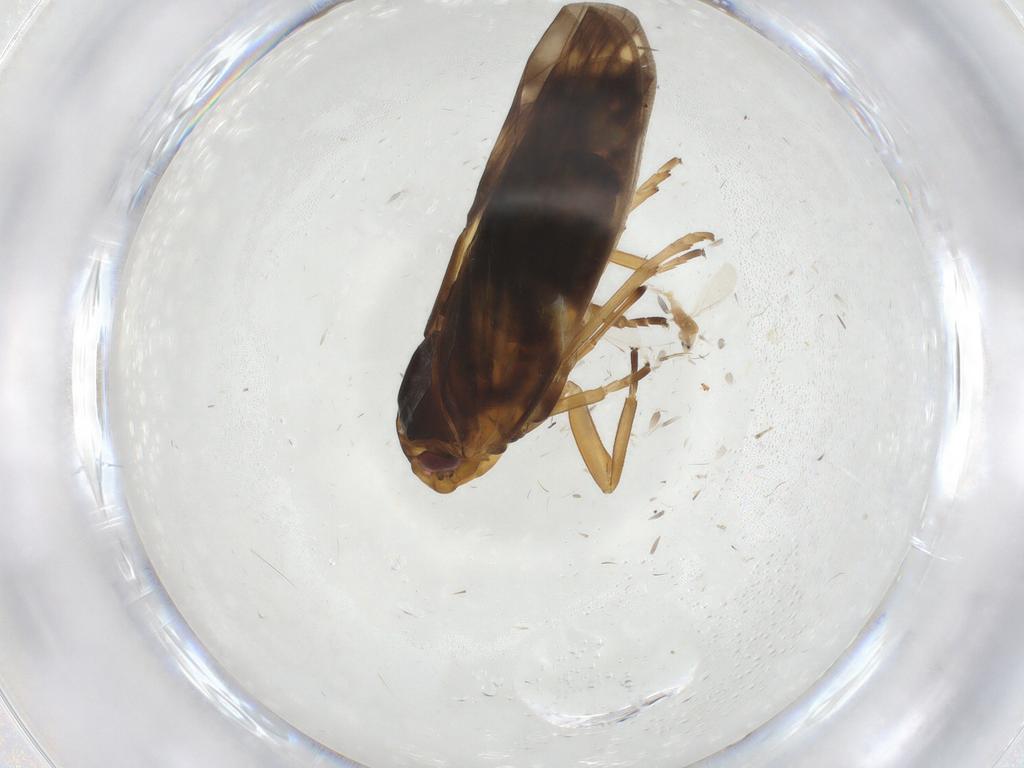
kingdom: Animalia
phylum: Arthropoda
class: Insecta
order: Hemiptera
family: Cixiidae
